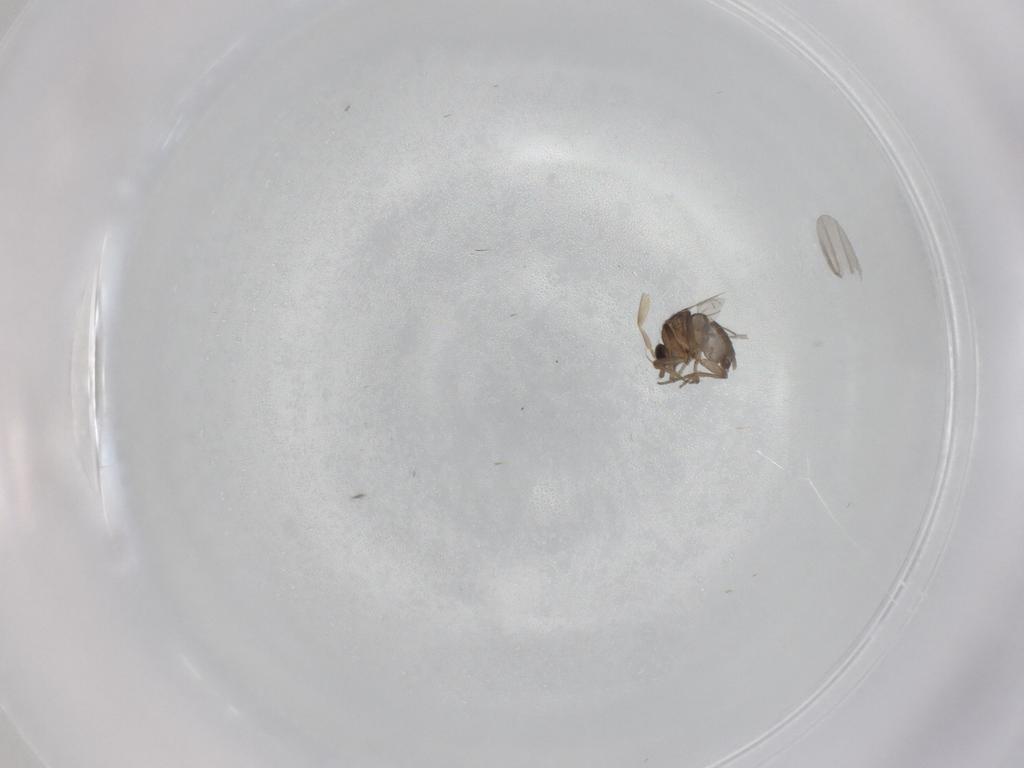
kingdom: Animalia
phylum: Arthropoda
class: Insecta
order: Diptera
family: Phoridae
